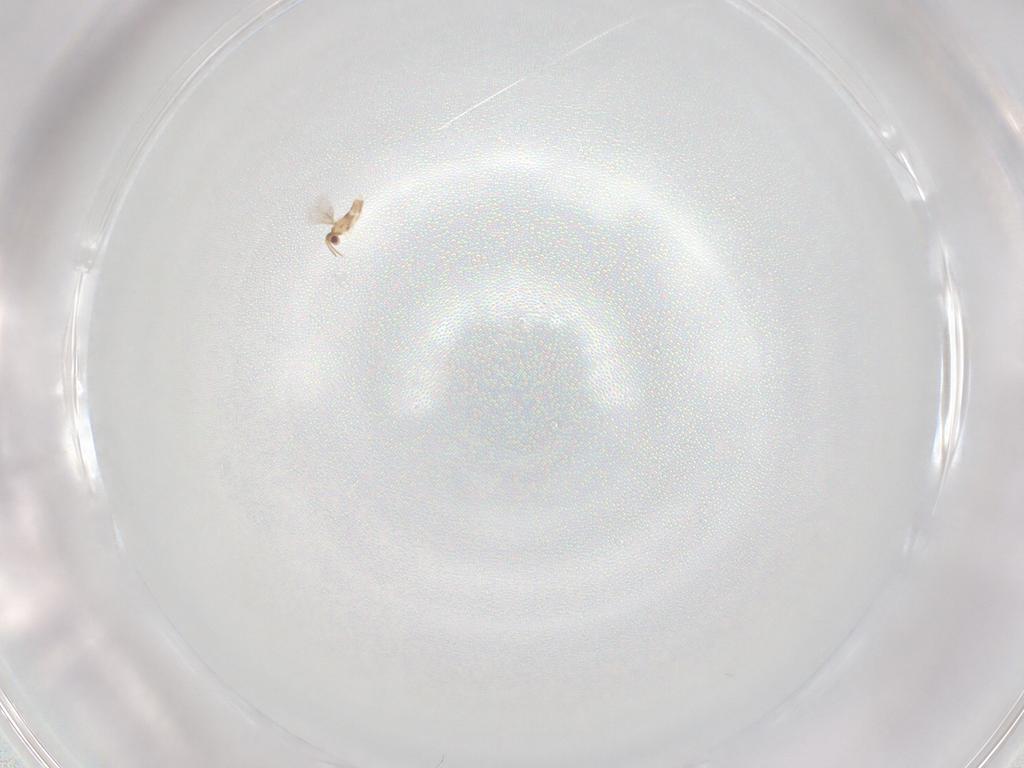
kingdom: Animalia
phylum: Arthropoda
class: Insecta
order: Hymenoptera
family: Aphelinidae
